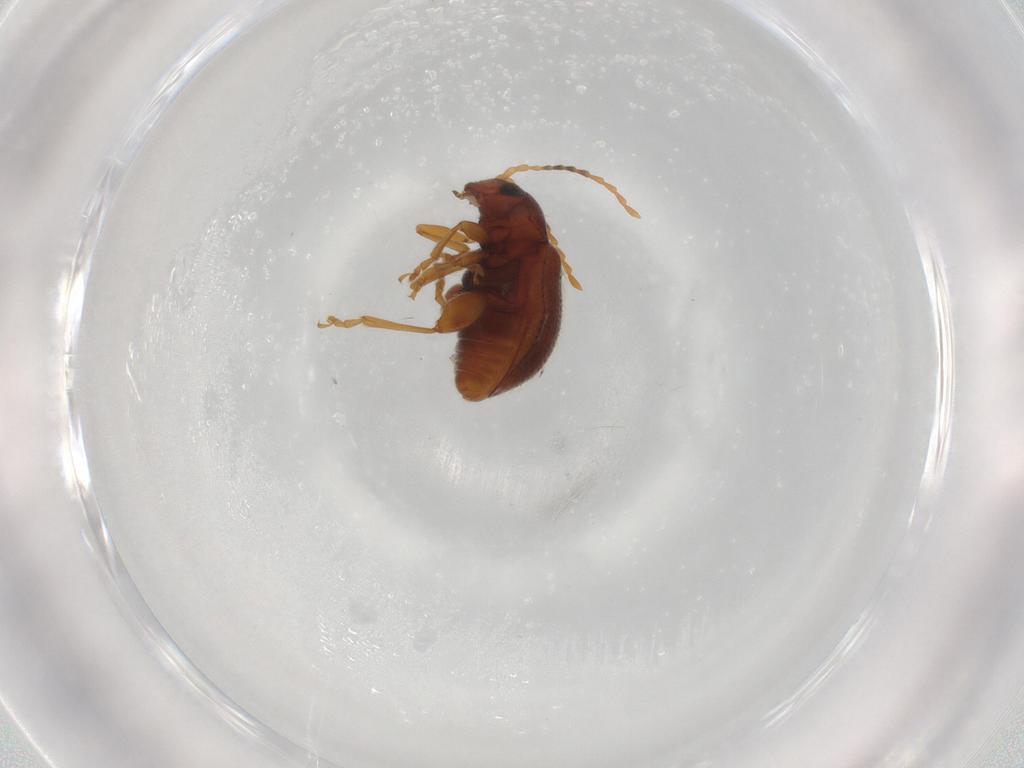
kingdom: Animalia
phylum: Arthropoda
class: Insecta
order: Coleoptera
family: Chrysomelidae
